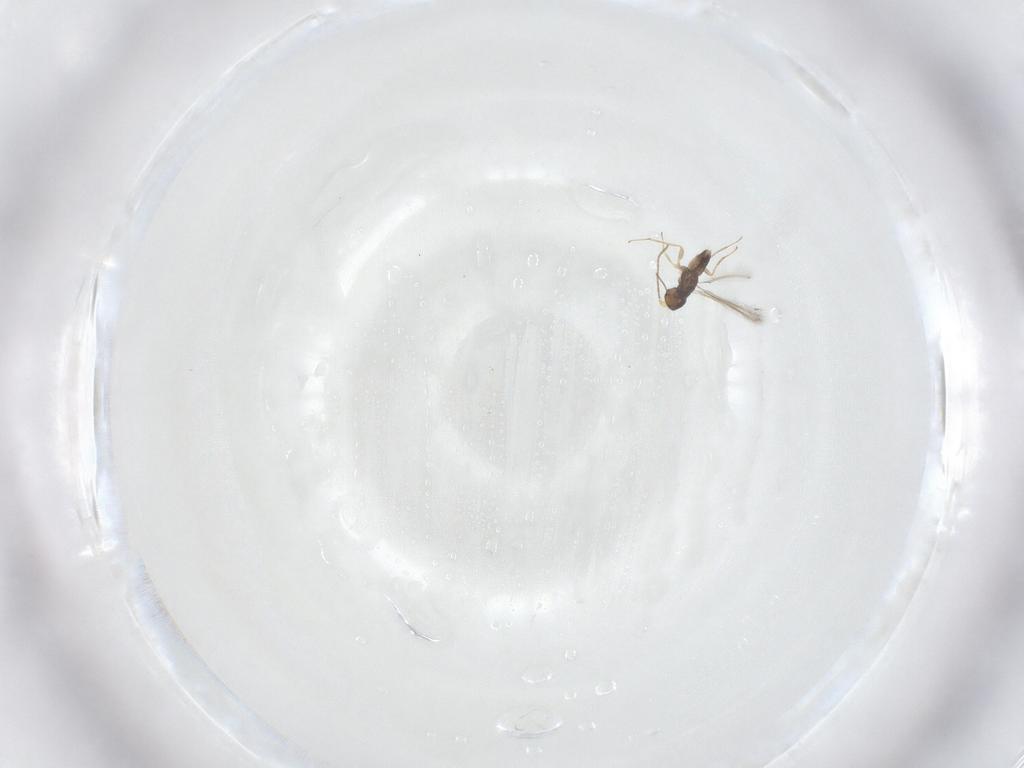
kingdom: Animalia
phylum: Arthropoda
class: Insecta
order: Hymenoptera
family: Mymaridae
